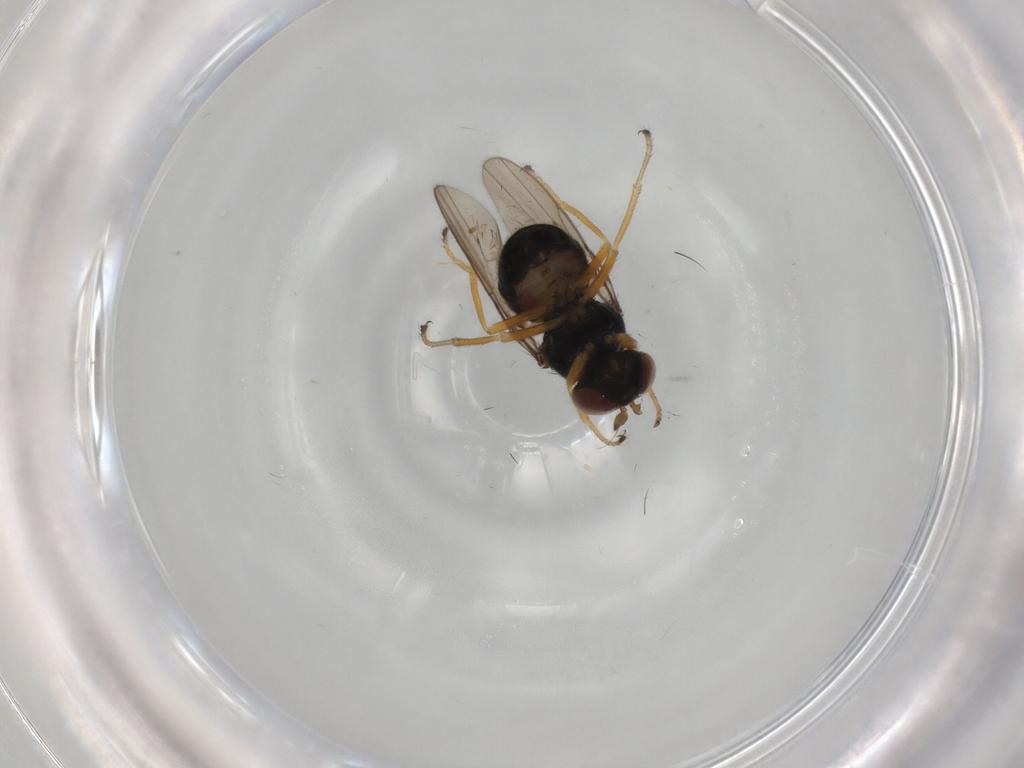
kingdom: Animalia
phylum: Arthropoda
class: Insecta
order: Diptera
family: Ephydridae
